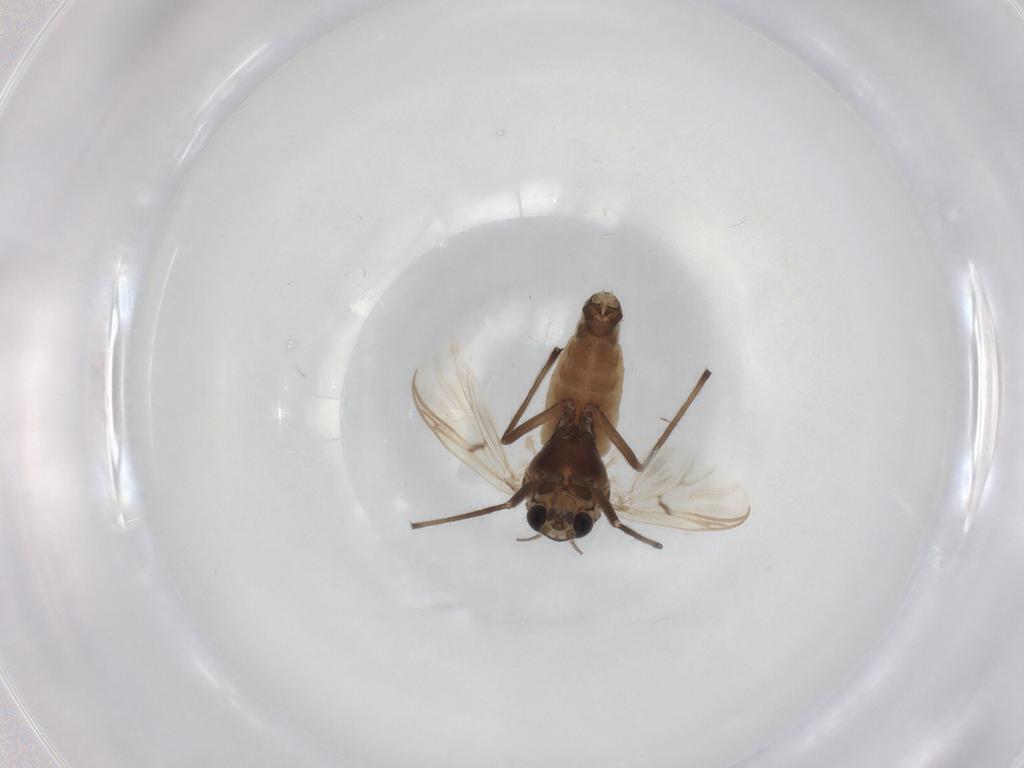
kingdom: Animalia
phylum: Arthropoda
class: Insecta
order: Diptera
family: Chironomidae
